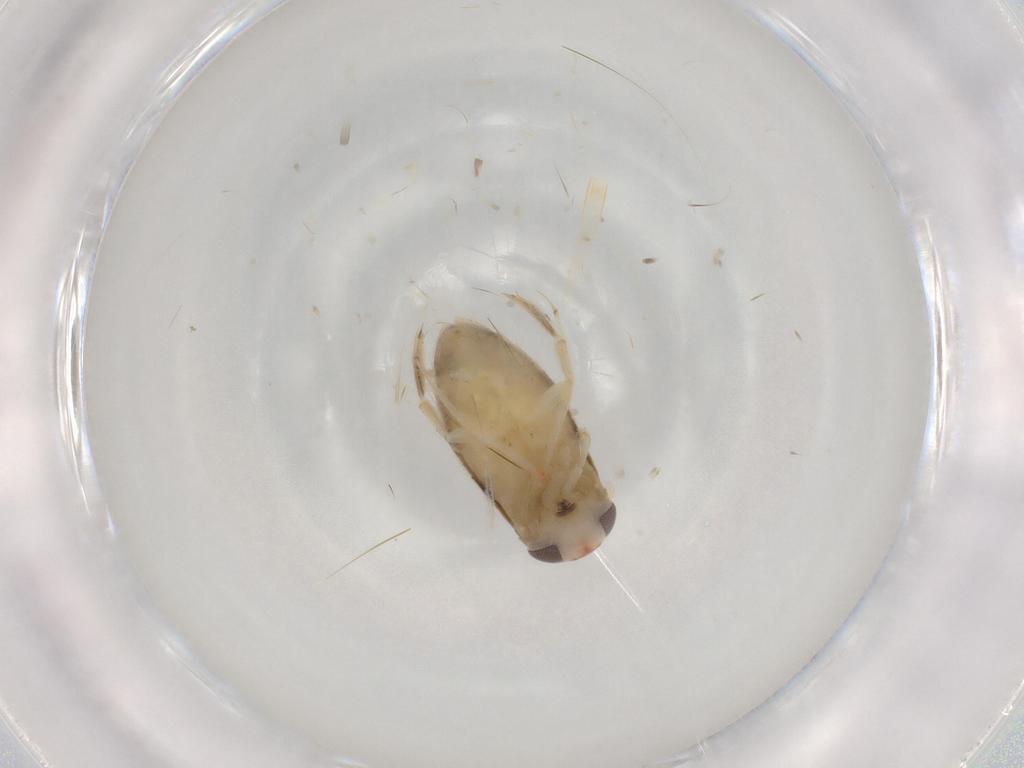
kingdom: Animalia
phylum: Arthropoda
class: Insecta
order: Hemiptera
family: Corixidae
